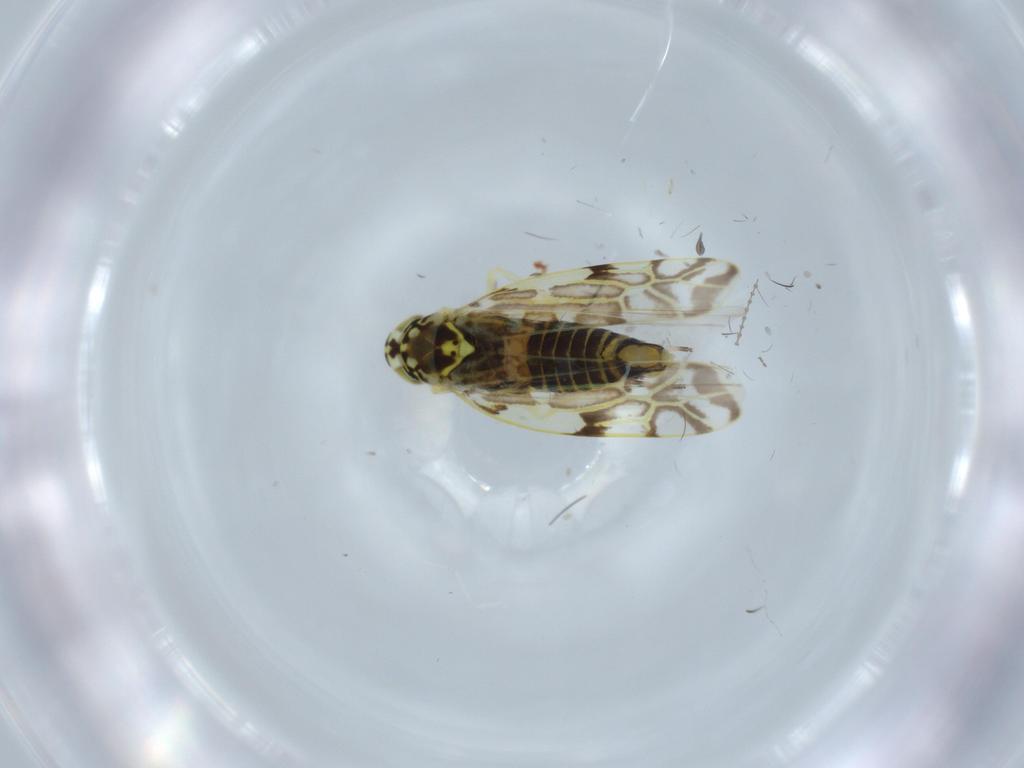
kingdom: Animalia
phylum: Arthropoda
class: Insecta
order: Hemiptera
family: Cicadellidae
